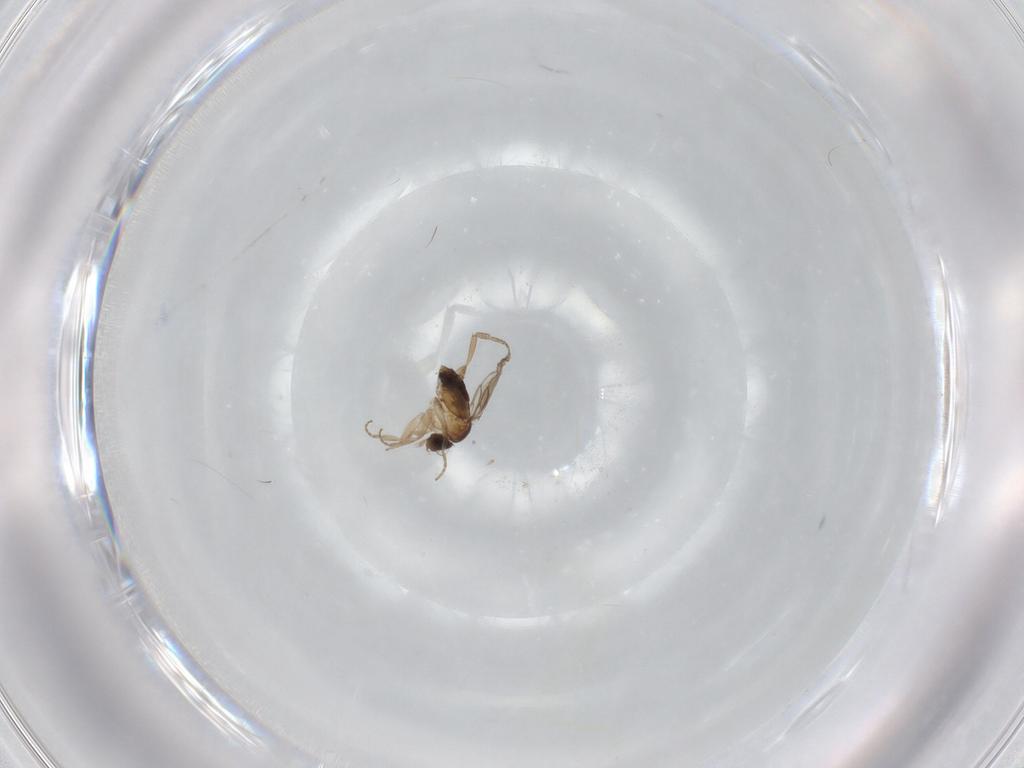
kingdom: Animalia
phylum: Arthropoda
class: Insecta
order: Diptera
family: Phoridae
